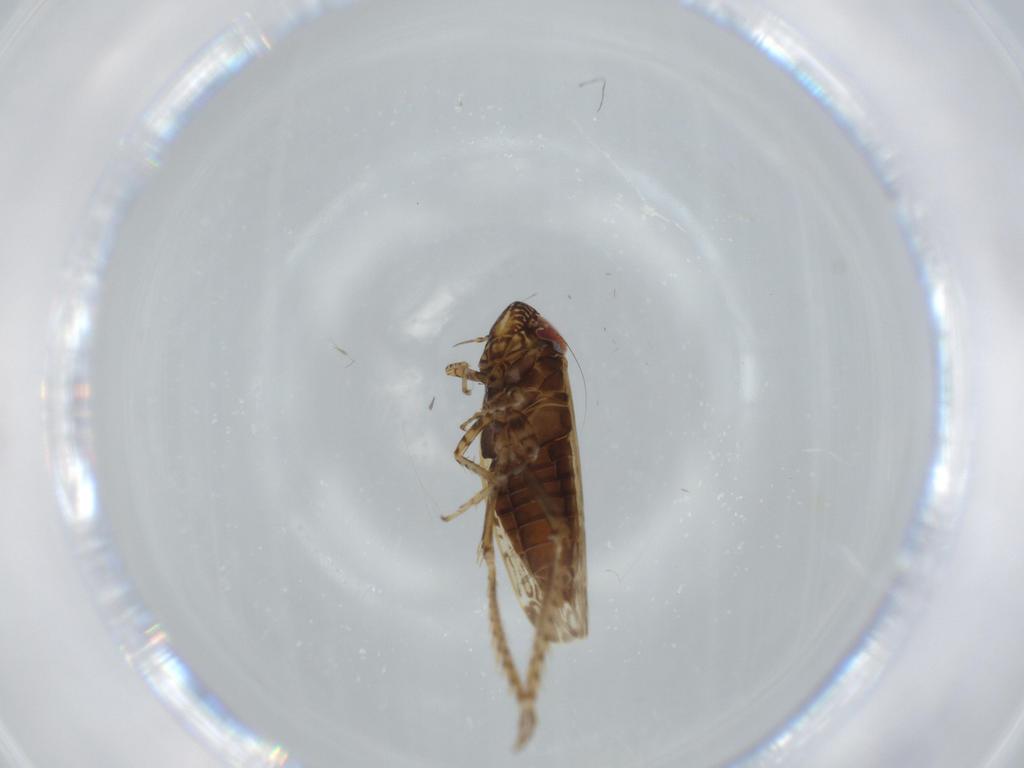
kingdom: Animalia
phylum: Arthropoda
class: Insecta
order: Hemiptera
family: Cicadellidae
